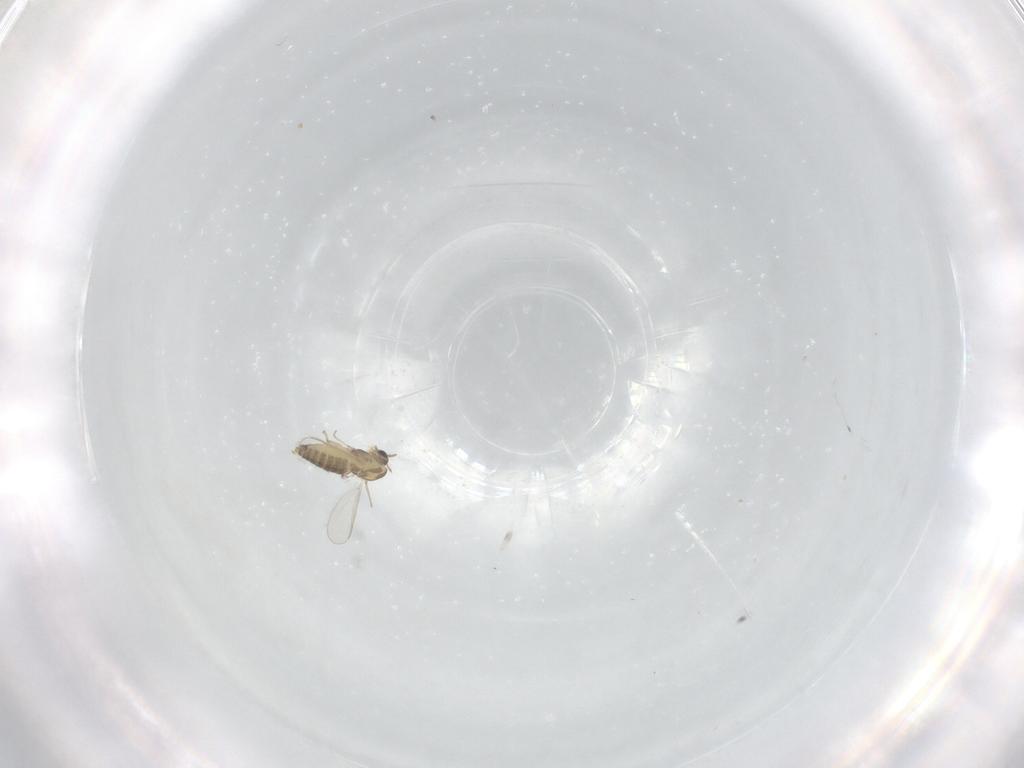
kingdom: Animalia
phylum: Arthropoda
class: Insecta
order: Diptera
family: Chironomidae
